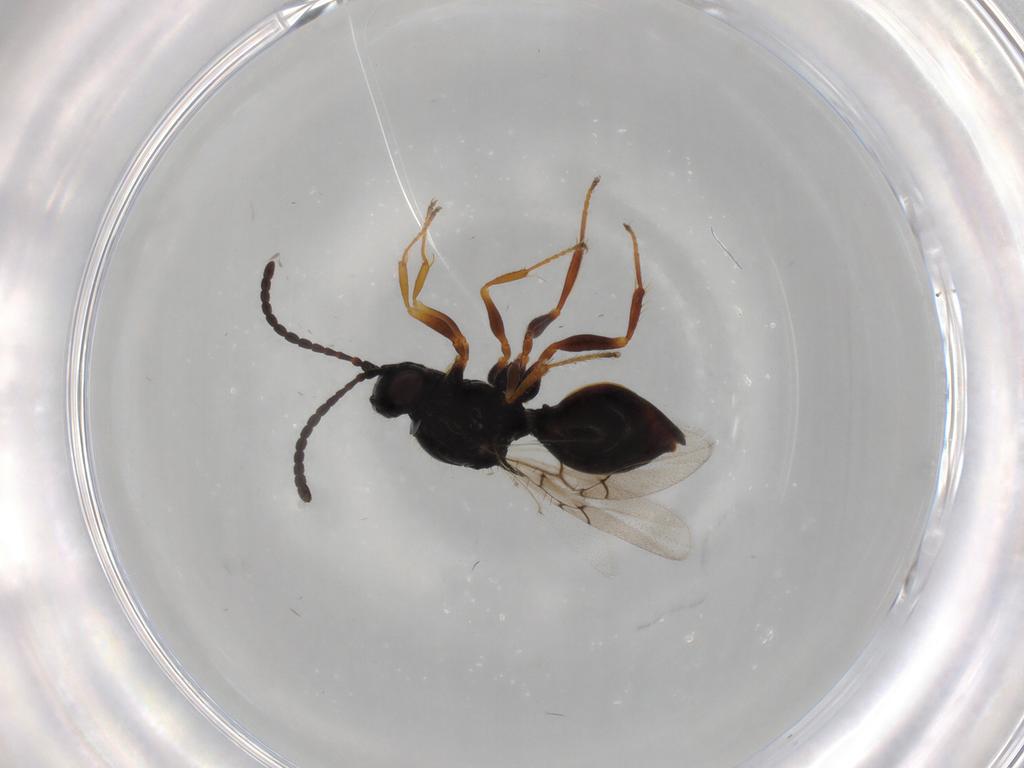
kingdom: Animalia
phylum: Arthropoda
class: Insecta
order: Hymenoptera
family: Figitidae
